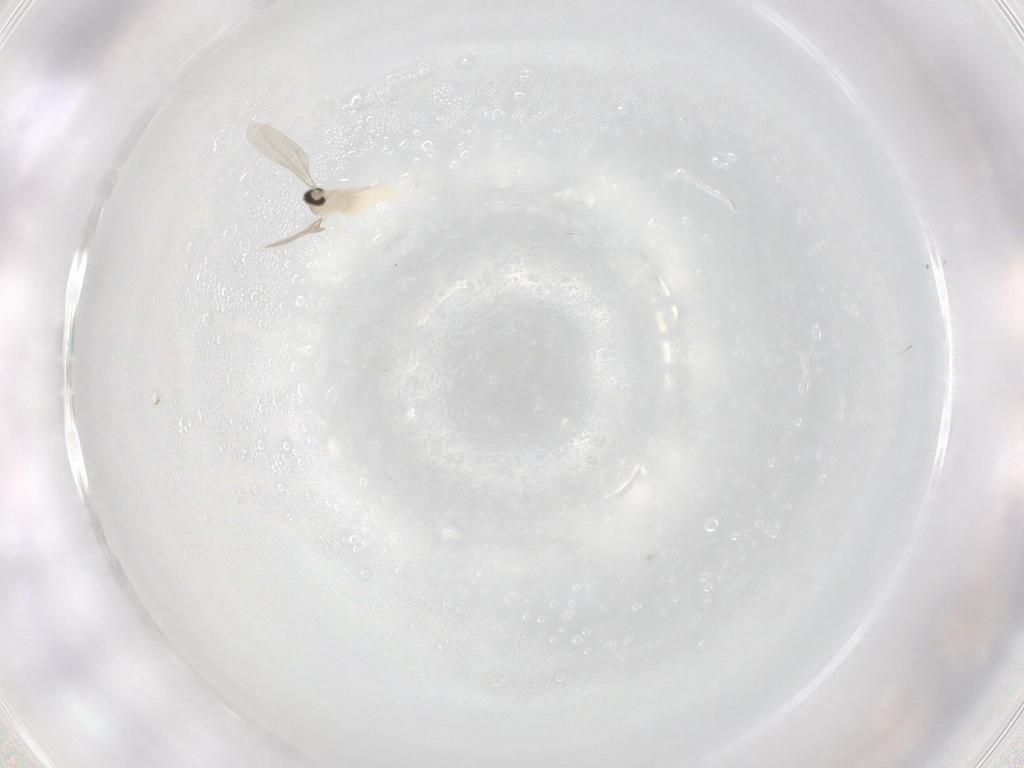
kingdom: Animalia
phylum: Arthropoda
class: Insecta
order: Diptera
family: Cecidomyiidae
